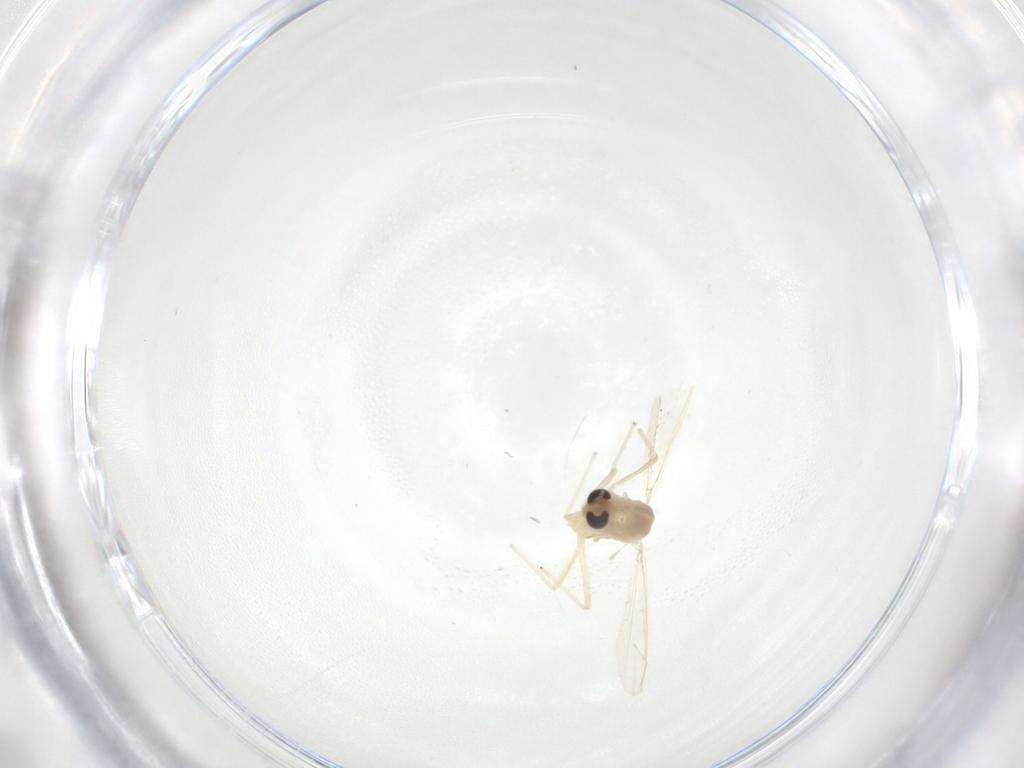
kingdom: Animalia
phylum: Arthropoda
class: Insecta
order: Diptera
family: Chironomidae
